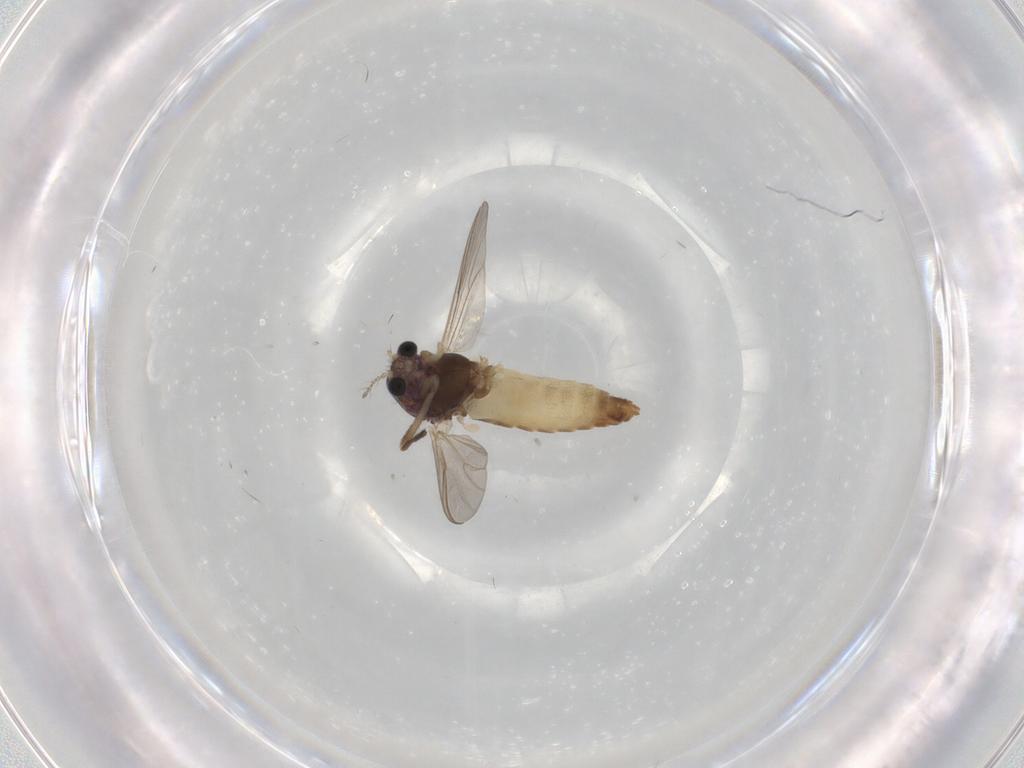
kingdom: Animalia
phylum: Arthropoda
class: Insecta
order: Diptera
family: Chironomidae
